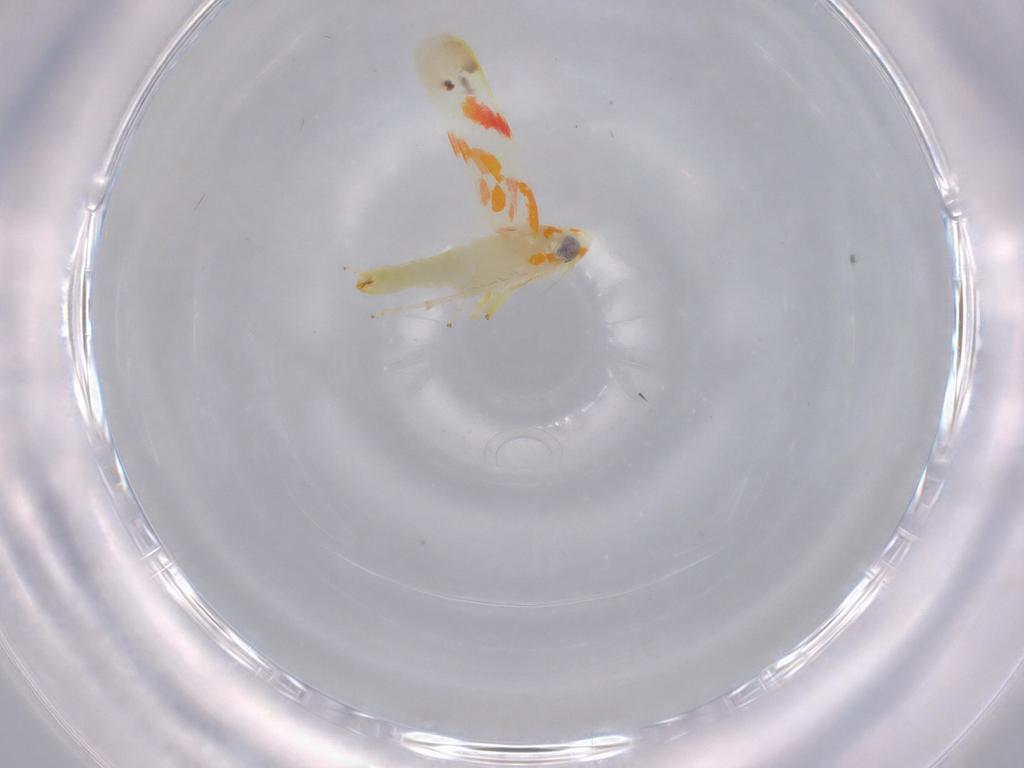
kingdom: Animalia
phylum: Arthropoda
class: Insecta
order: Hemiptera
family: Cicadellidae
